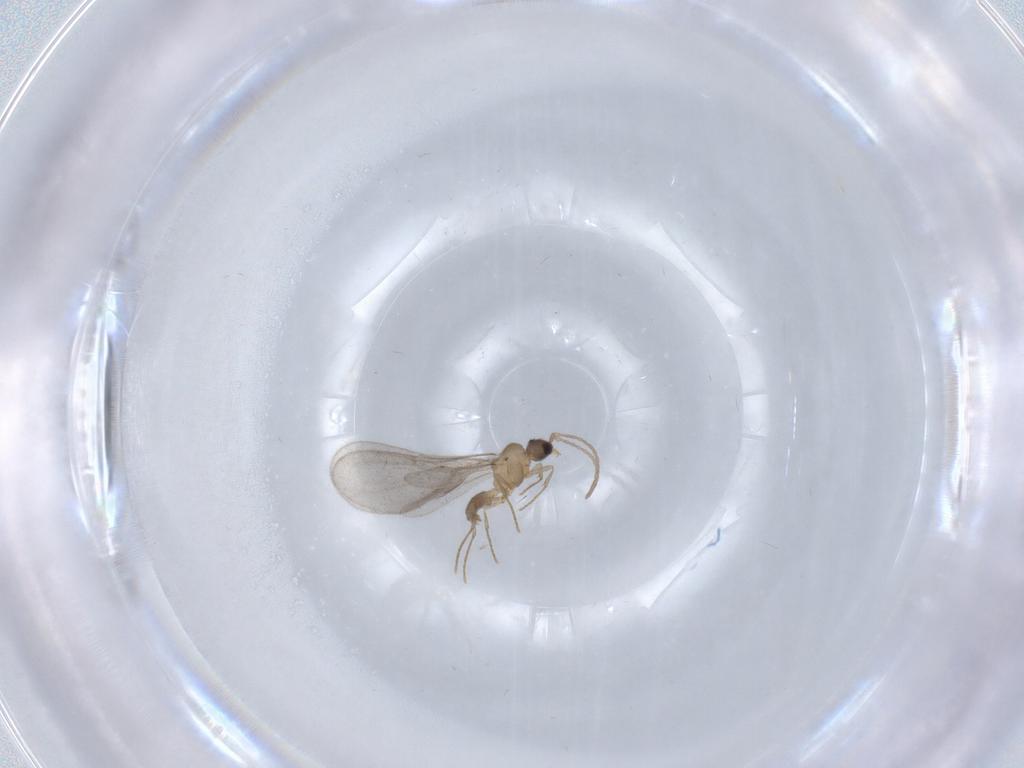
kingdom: Animalia
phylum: Arthropoda
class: Insecta
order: Hymenoptera
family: Formicidae
